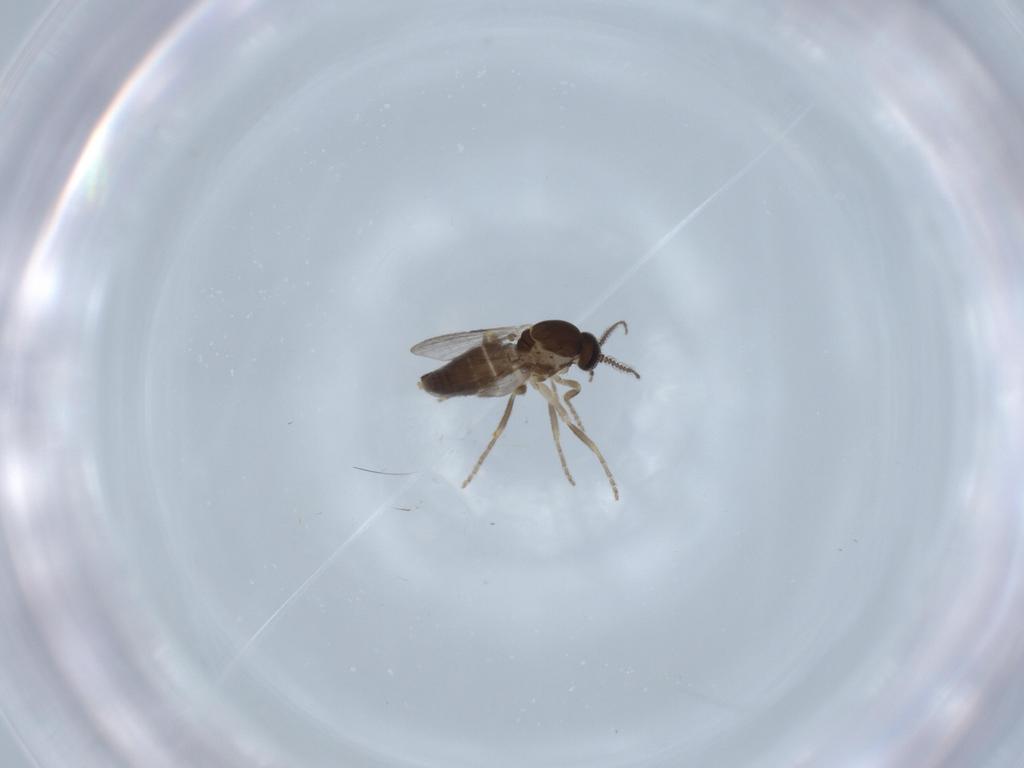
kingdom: Animalia
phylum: Arthropoda
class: Insecta
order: Diptera
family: Ceratopogonidae
